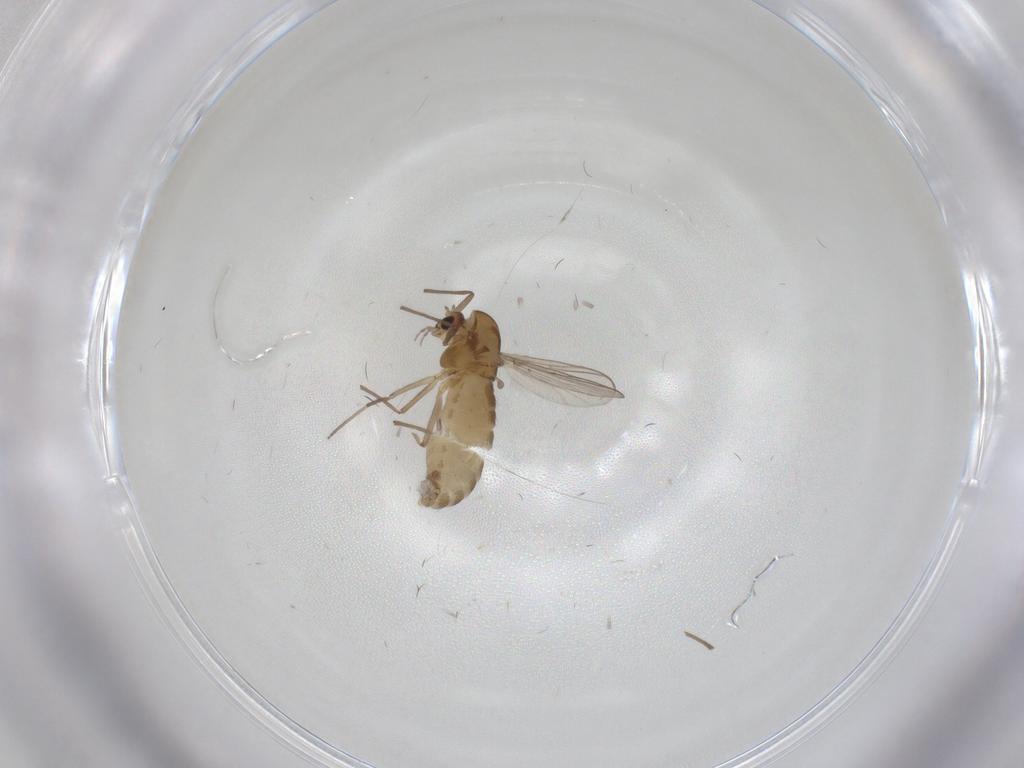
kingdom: Animalia
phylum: Arthropoda
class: Insecta
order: Diptera
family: Chironomidae
